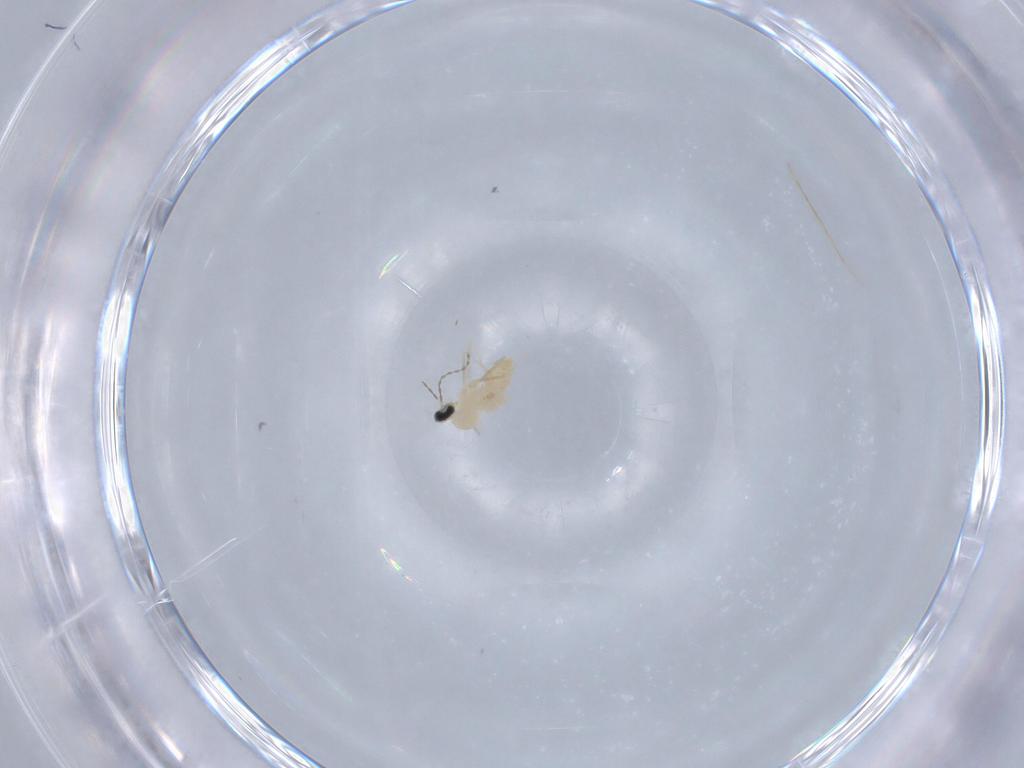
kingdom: Animalia
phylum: Arthropoda
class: Insecta
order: Diptera
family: Cecidomyiidae
